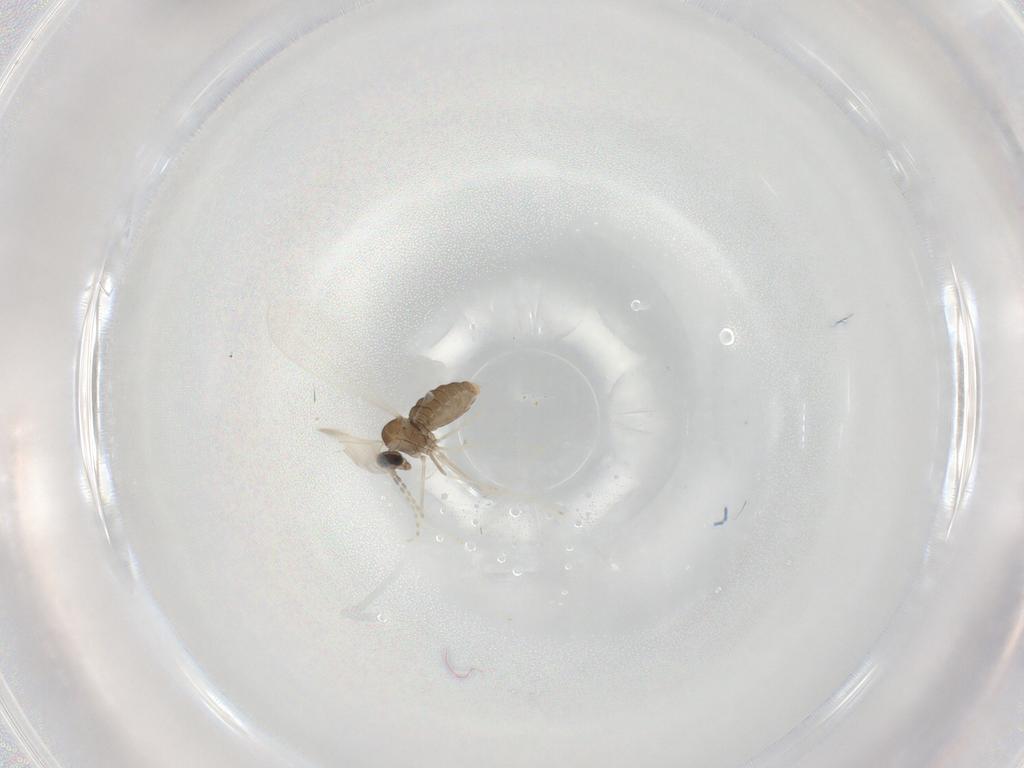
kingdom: Animalia
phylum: Arthropoda
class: Insecta
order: Diptera
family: Cecidomyiidae
